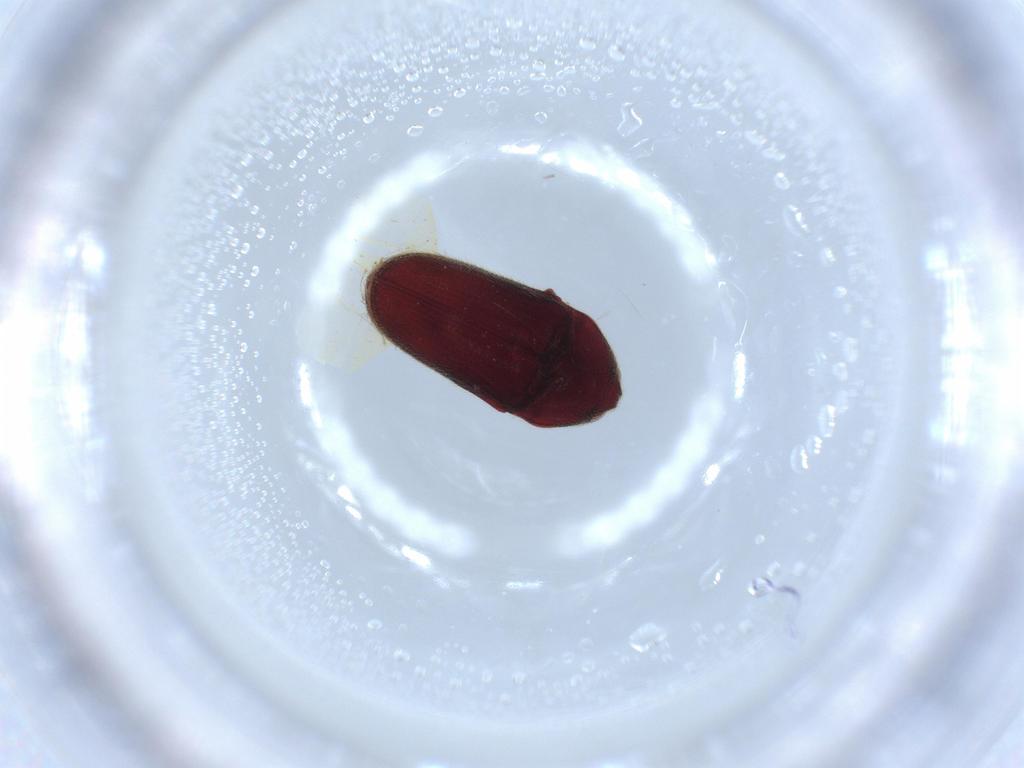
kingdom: Animalia
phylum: Arthropoda
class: Insecta
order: Coleoptera
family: Throscidae
